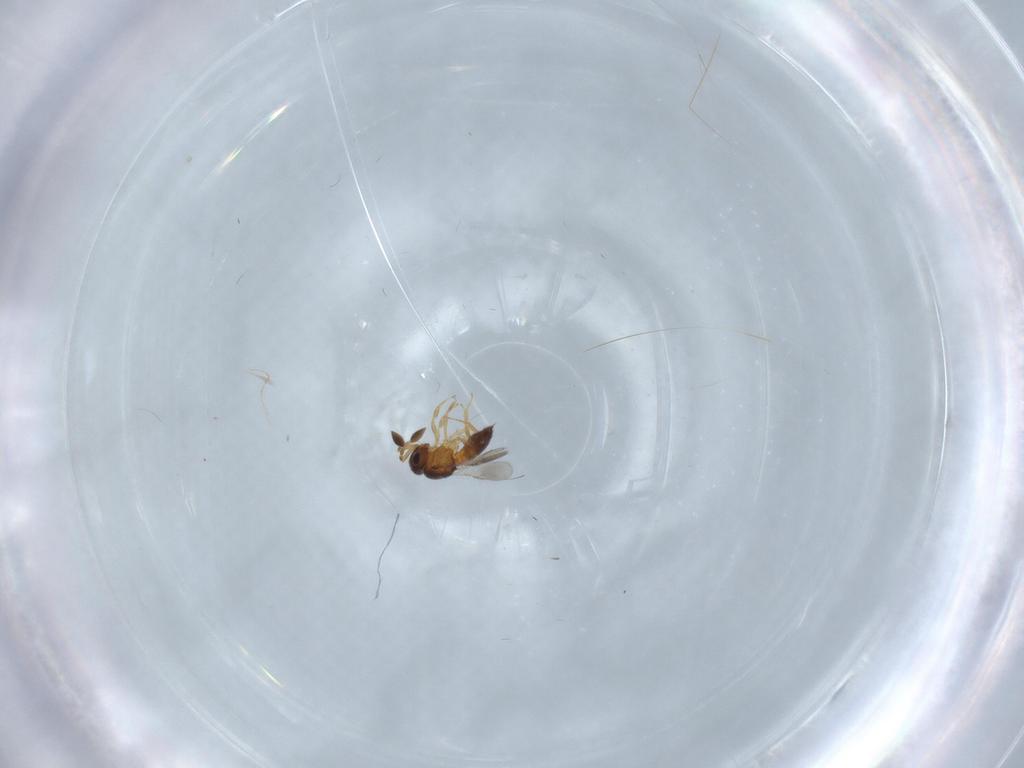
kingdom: Animalia
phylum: Arthropoda
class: Insecta
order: Hymenoptera
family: Scelionidae
